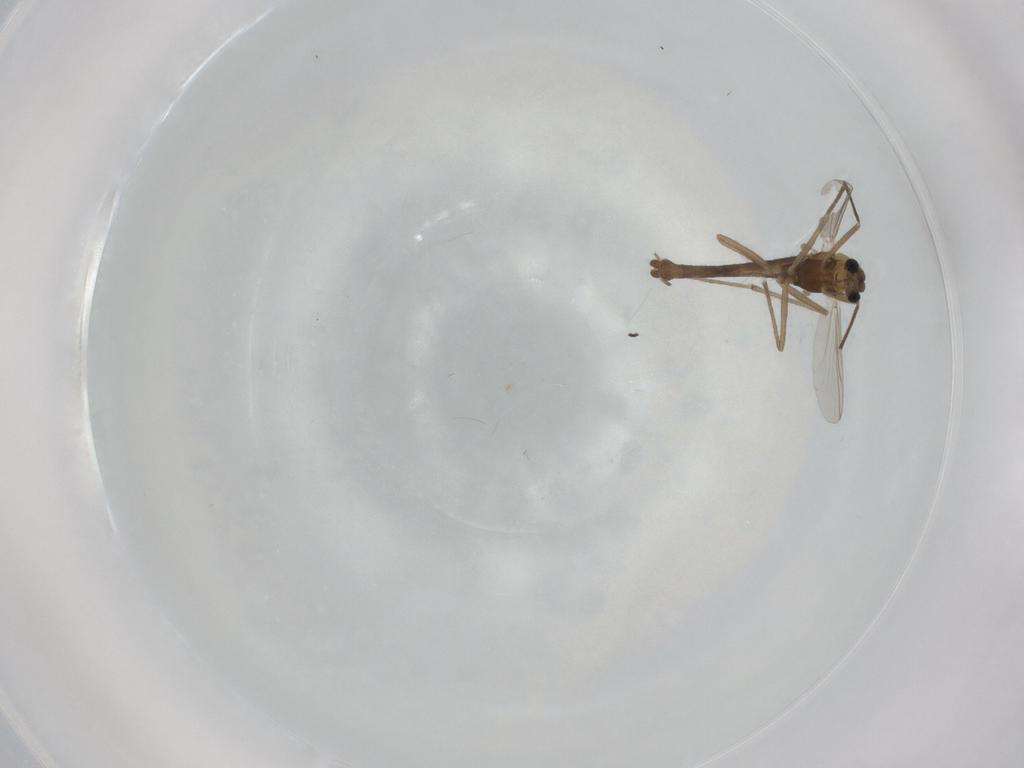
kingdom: Animalia
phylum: Arthropoda
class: Insecta
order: Diptera
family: Chironomidae
